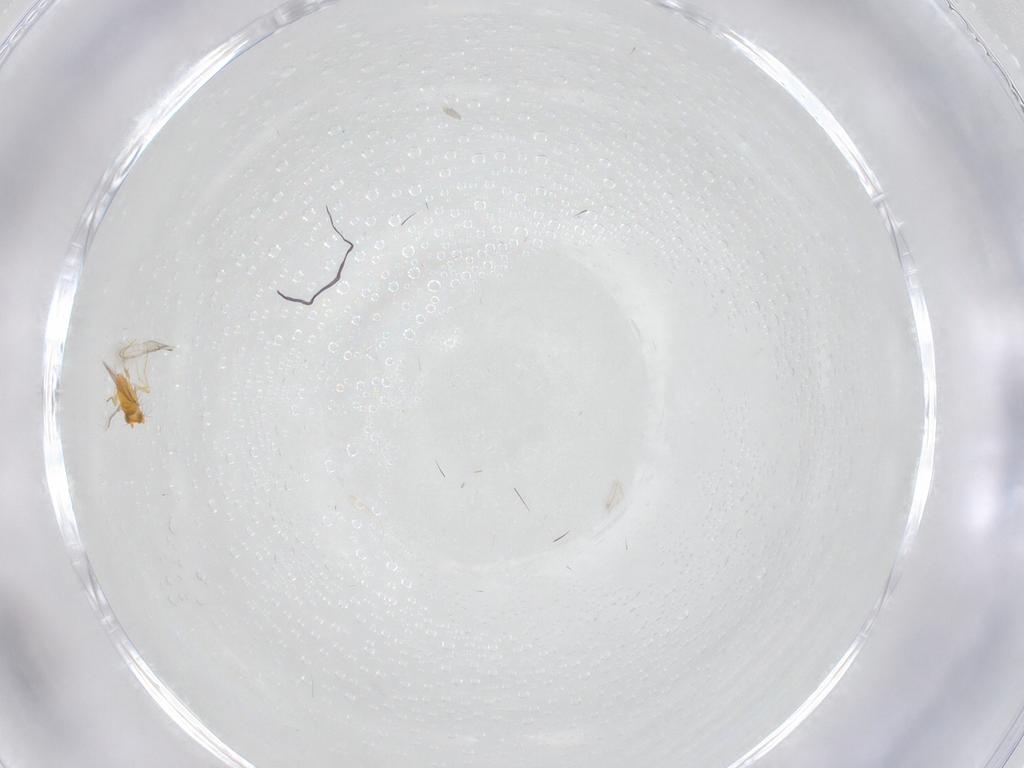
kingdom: Animalia
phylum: Arthropoda
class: Insecta
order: Diptera
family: Chironomidae
